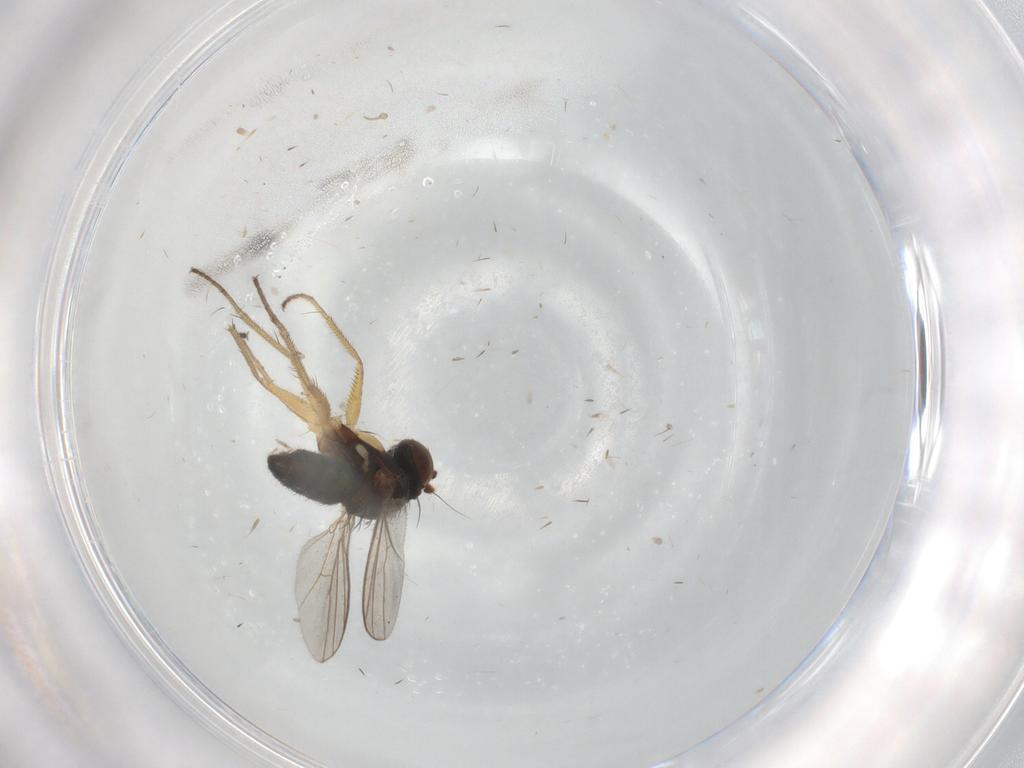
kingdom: Animalia
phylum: Arthropoda
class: Insecta
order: Diptera
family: Dolichopodidae
